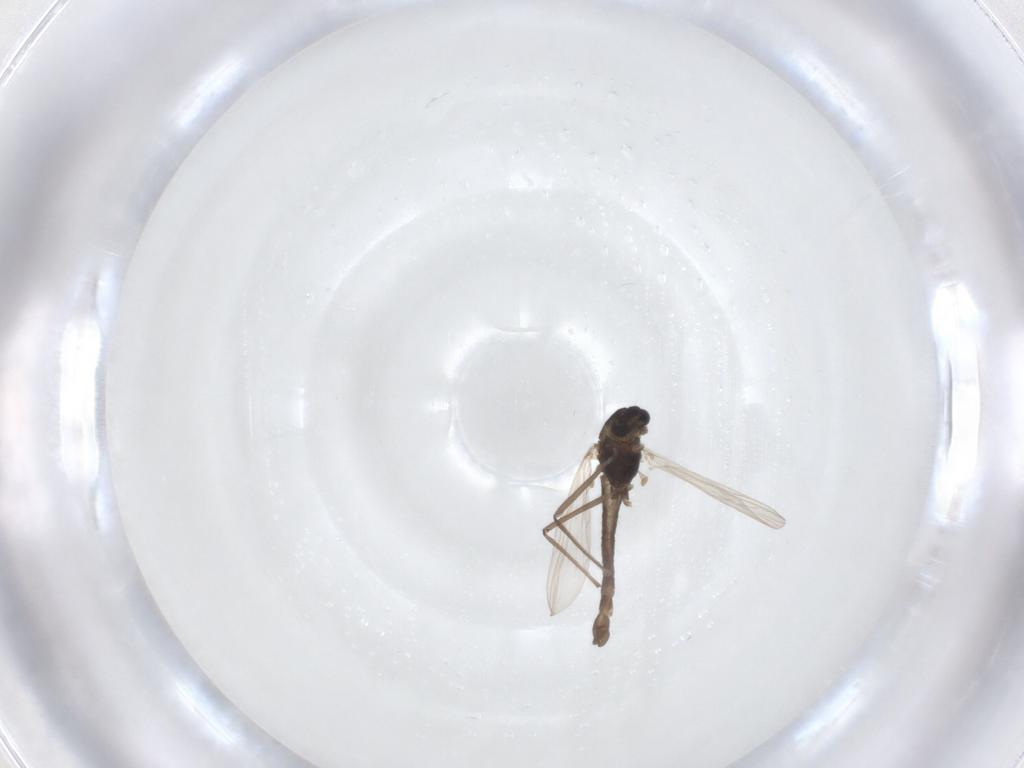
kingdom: Animalia
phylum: Arthropoda
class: Insecta
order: Diptera
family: Chironomidae
